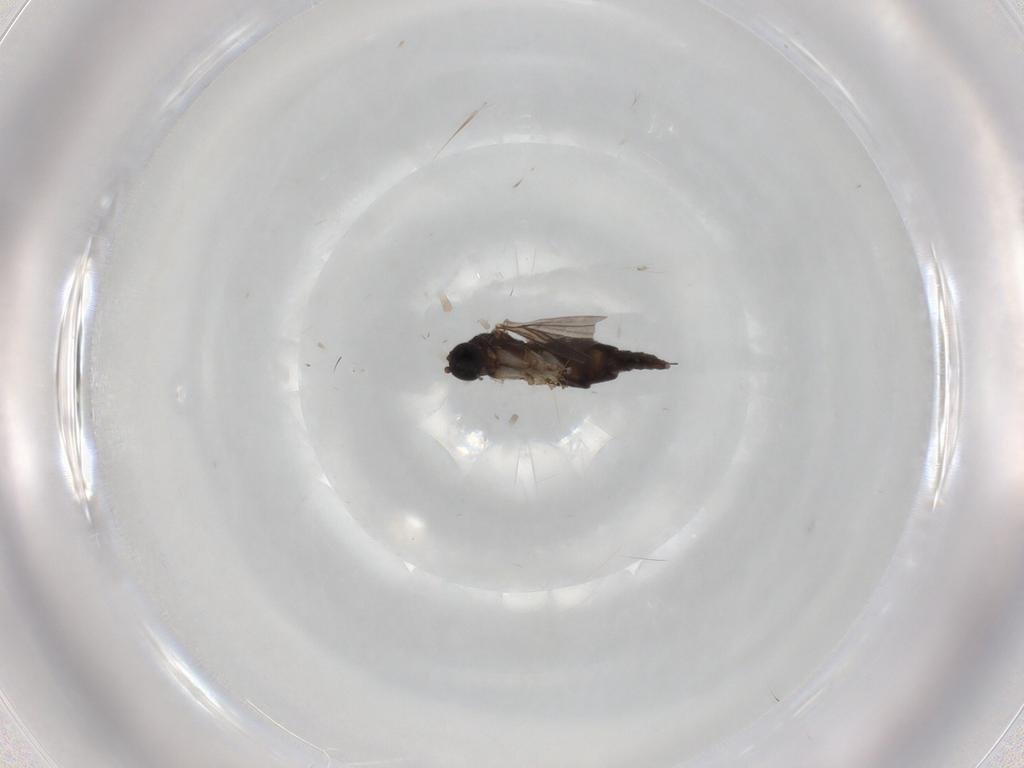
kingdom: Animalia
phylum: Arthropoda
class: Insecta
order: Diptera
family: Sciaridae
